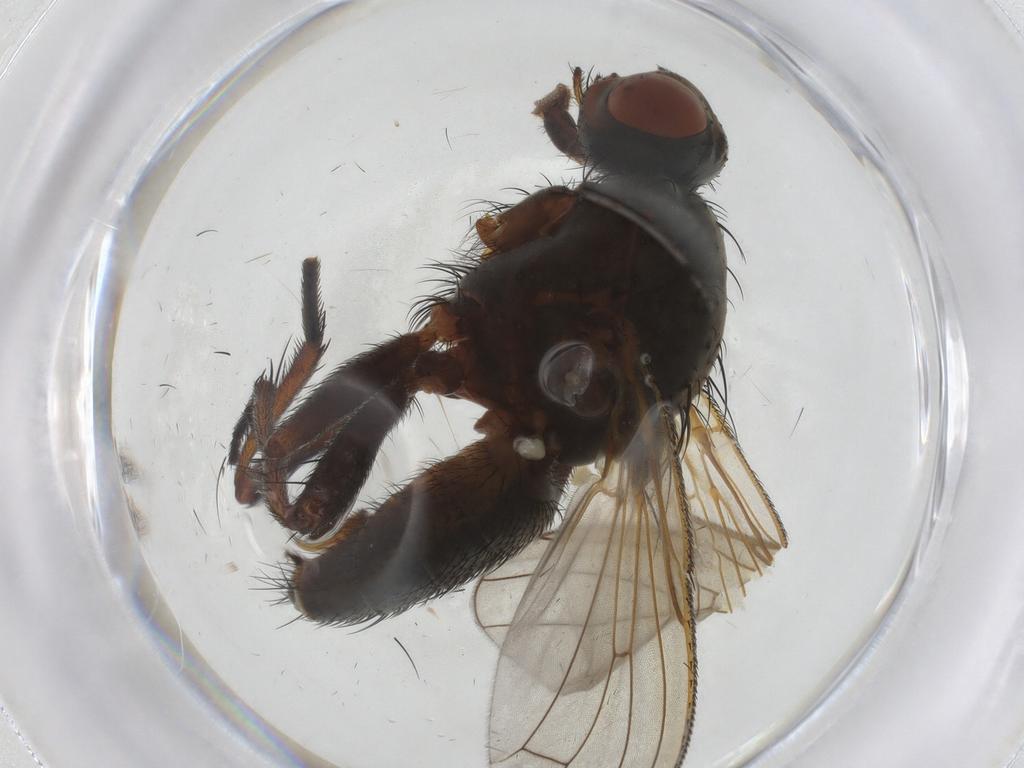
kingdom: Animalia
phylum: Arthropoda
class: Insecta
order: Diptera
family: Anthomyiidae
